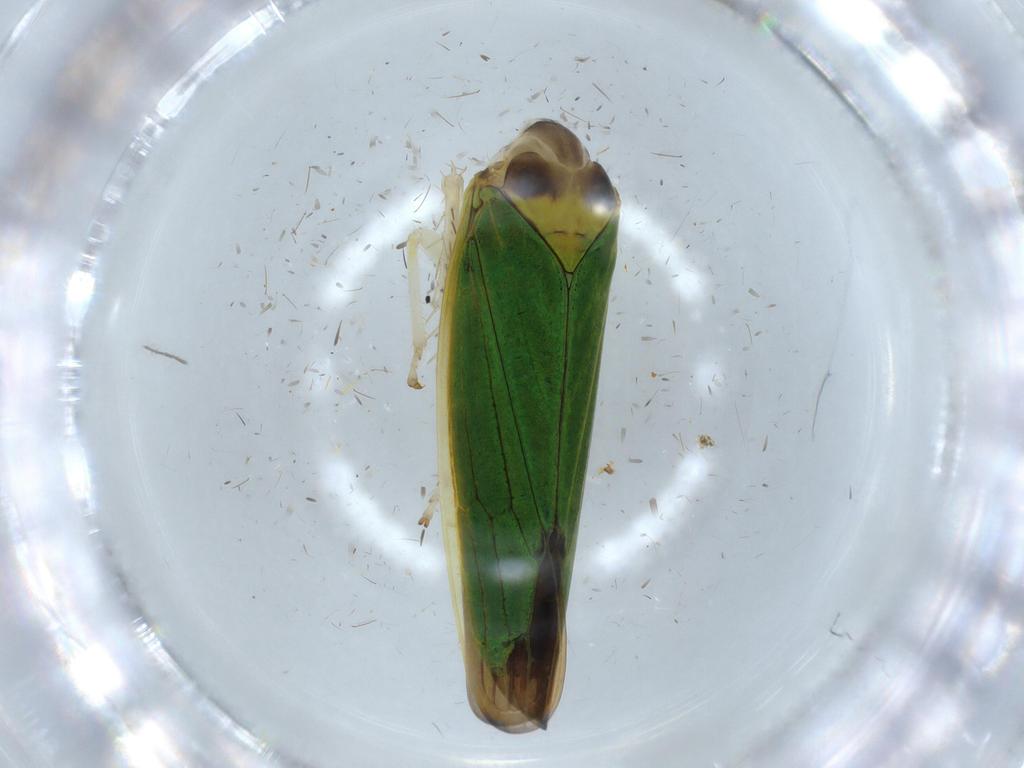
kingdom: Animalia
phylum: Arthropoda
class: Insecta
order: Hemiptera
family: Cicadellidae
